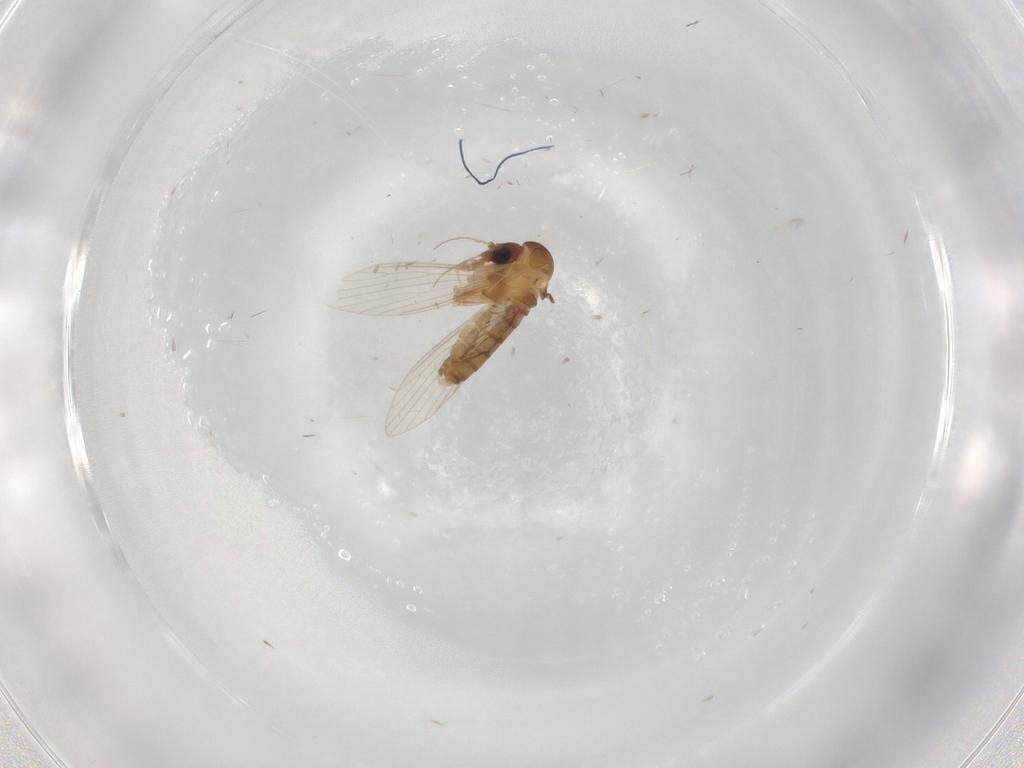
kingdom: Animalia
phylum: Arthropoda
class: Insecta
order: Diptera
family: Psychodidae
